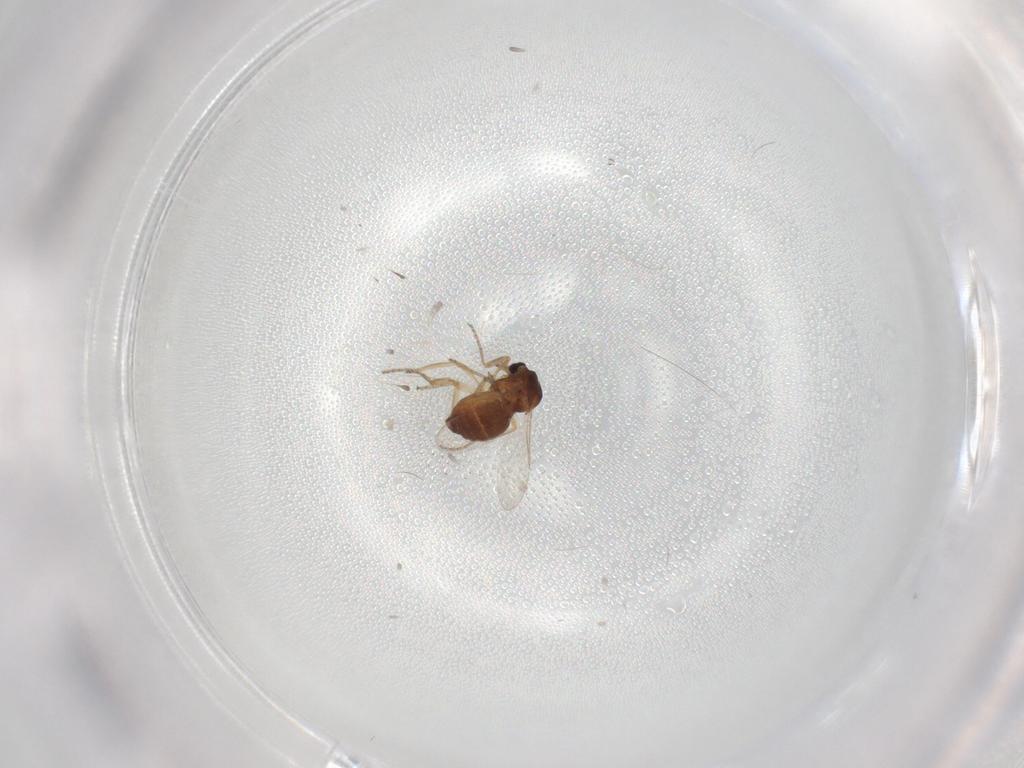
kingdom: Animalia
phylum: Arthropoda
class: Insecta
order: Diptera
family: Ceratopogonidae
